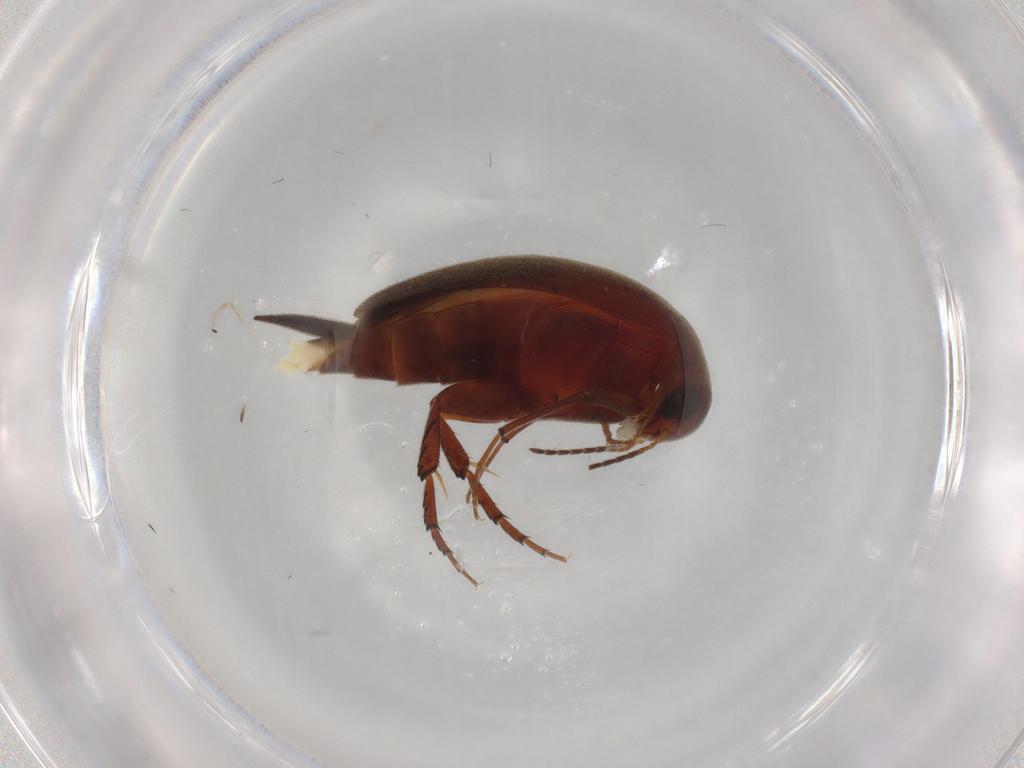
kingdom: Animalia
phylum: Arthropoda
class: Insecta
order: Coleoptera
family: Mordellidae
